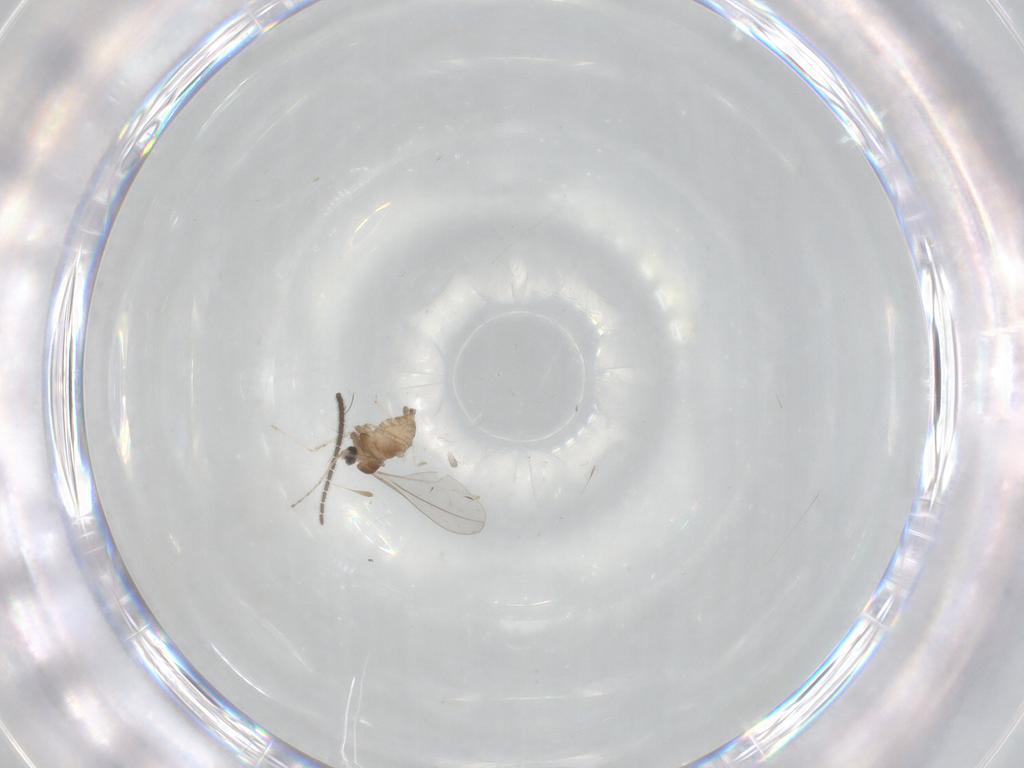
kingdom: Animalia
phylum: Arthropoda
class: Insecta
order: Diptera
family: Cecidomyiidae
